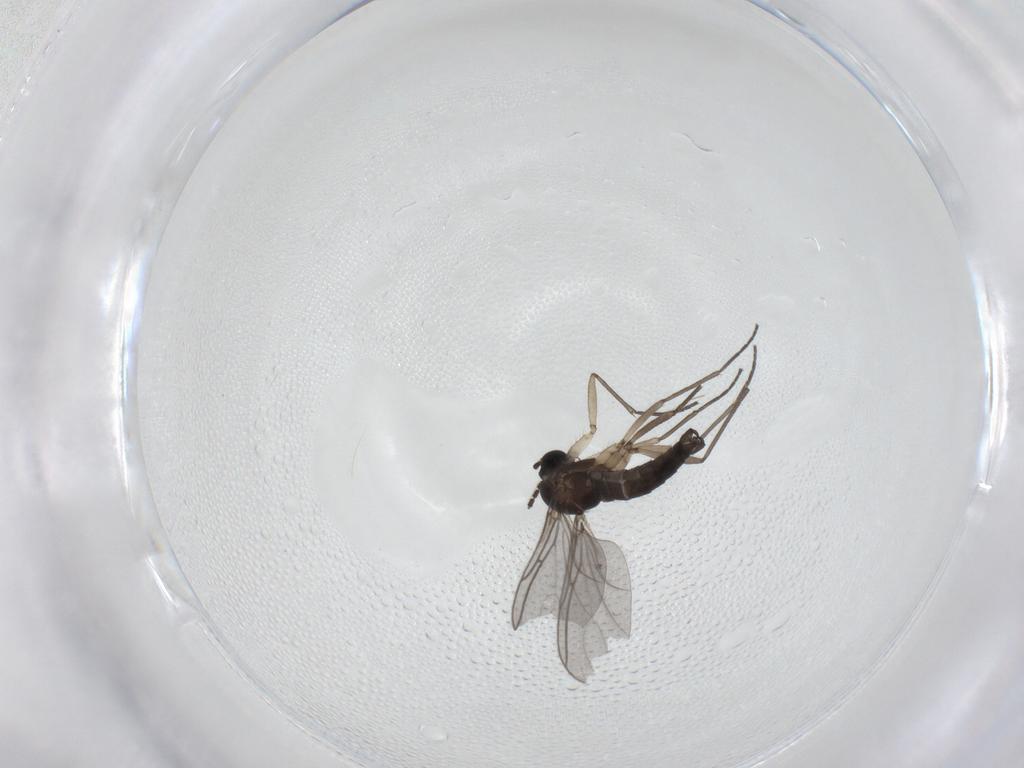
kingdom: Animalia
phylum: Arthropoda
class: Insecta
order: Diptera
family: Sciaridae
